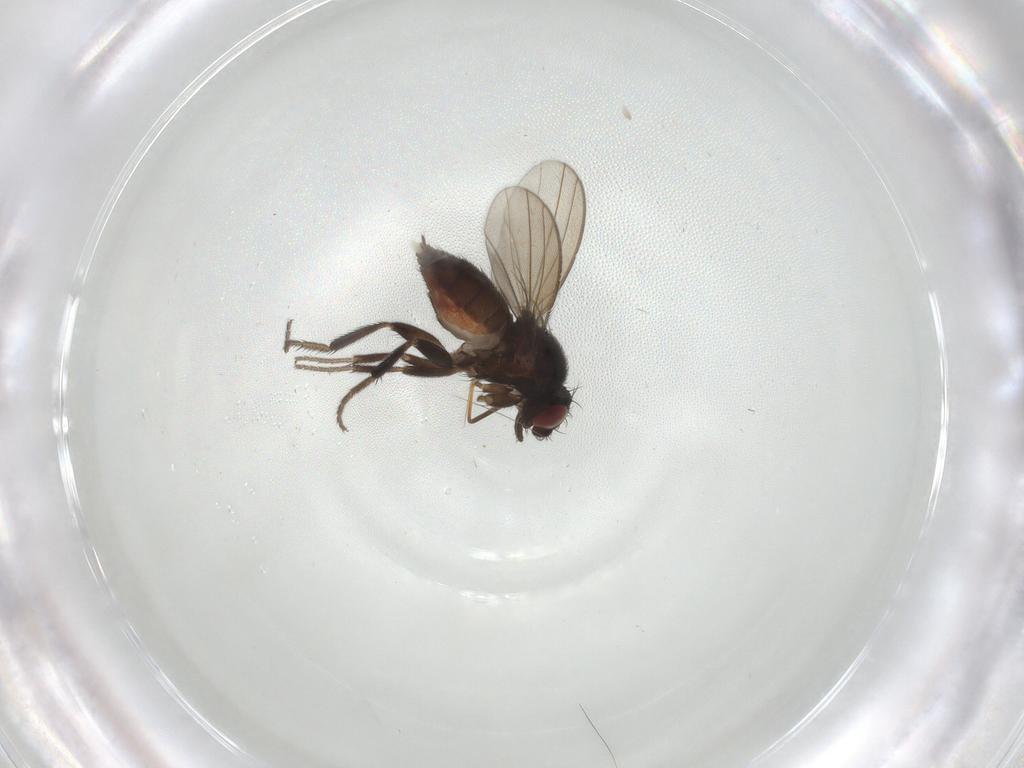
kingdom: Animalia
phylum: Arthropoda
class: Insecta
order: Diptera
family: Milichiidae
